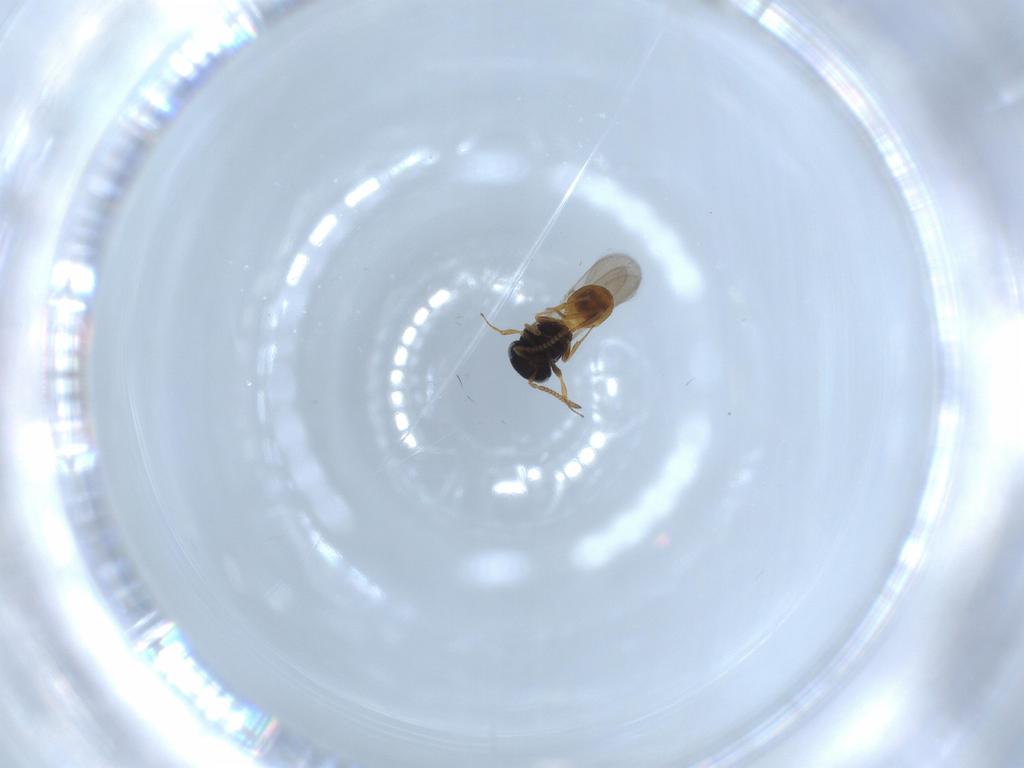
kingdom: Animalia
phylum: Arthropoda
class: Insecta
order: Hymenoptera
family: Scelionidae
